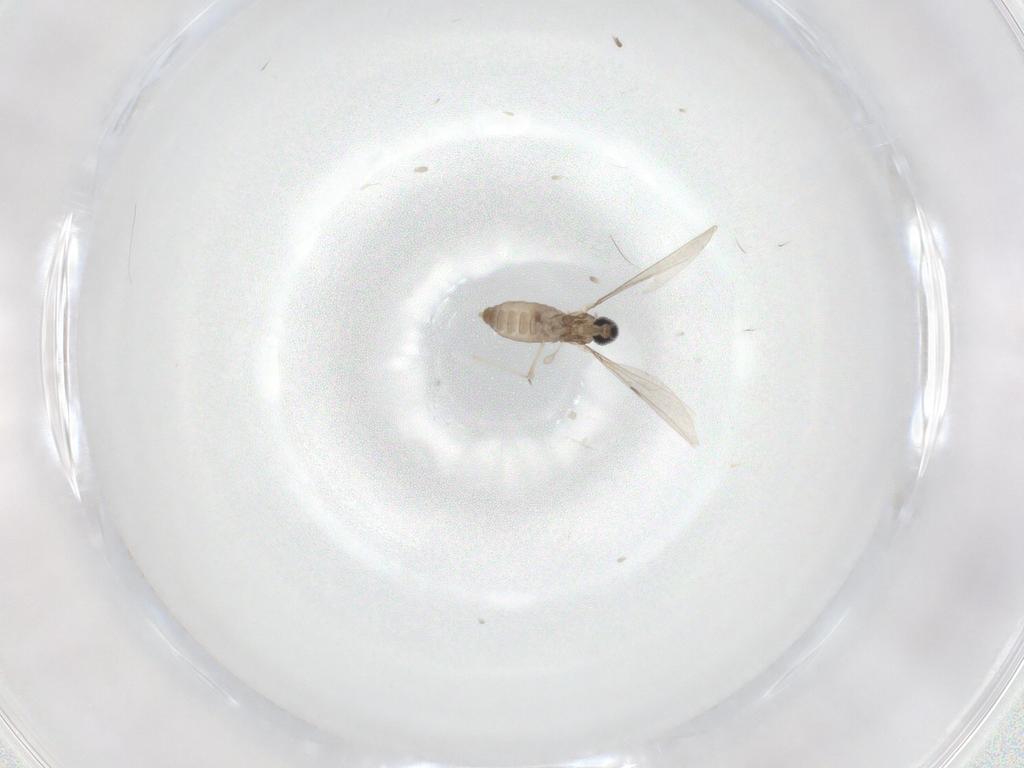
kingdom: Animalia
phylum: Arthropoda
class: Insecta
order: Diptera
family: Cecidomyiidae
